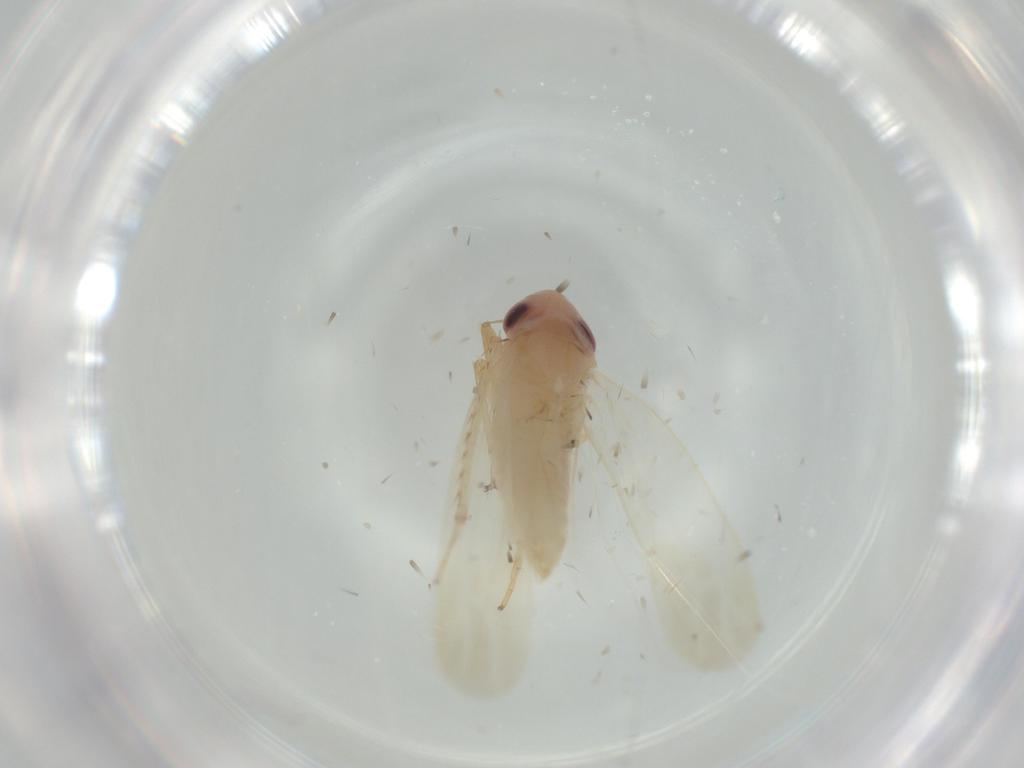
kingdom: Animalia
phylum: Arthropoda
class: Insecta
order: Hemiptera
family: Cicadellidae
